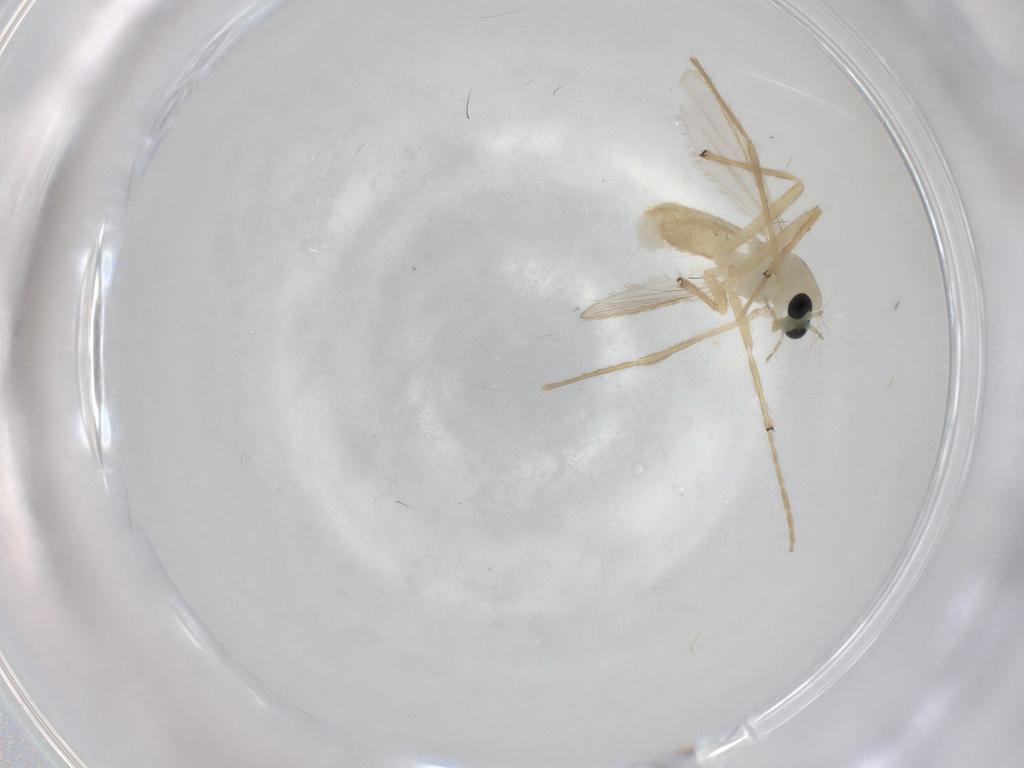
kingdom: Animalia
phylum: Arthropoda
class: Insecta
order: Diptera
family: Chironomidae
